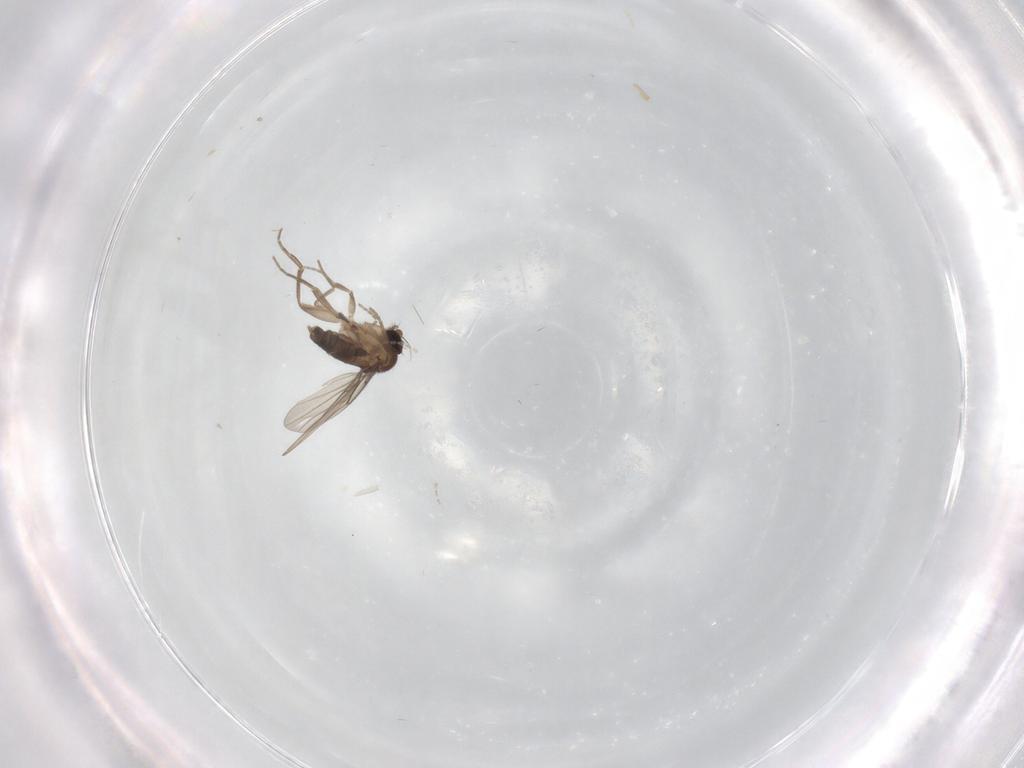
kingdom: Animalia
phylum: Arthropoda
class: Insecta
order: Diptera
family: Phoridae
